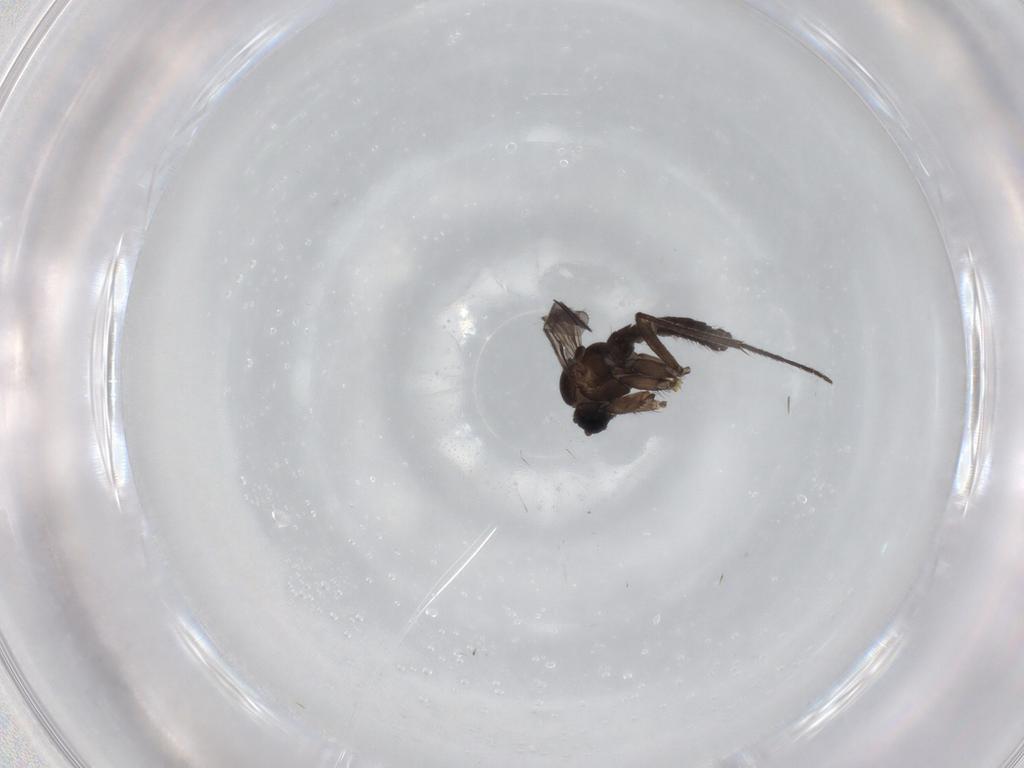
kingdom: Animalia
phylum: Arthropoda
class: Insecta
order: Diptera
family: Sciaridae
